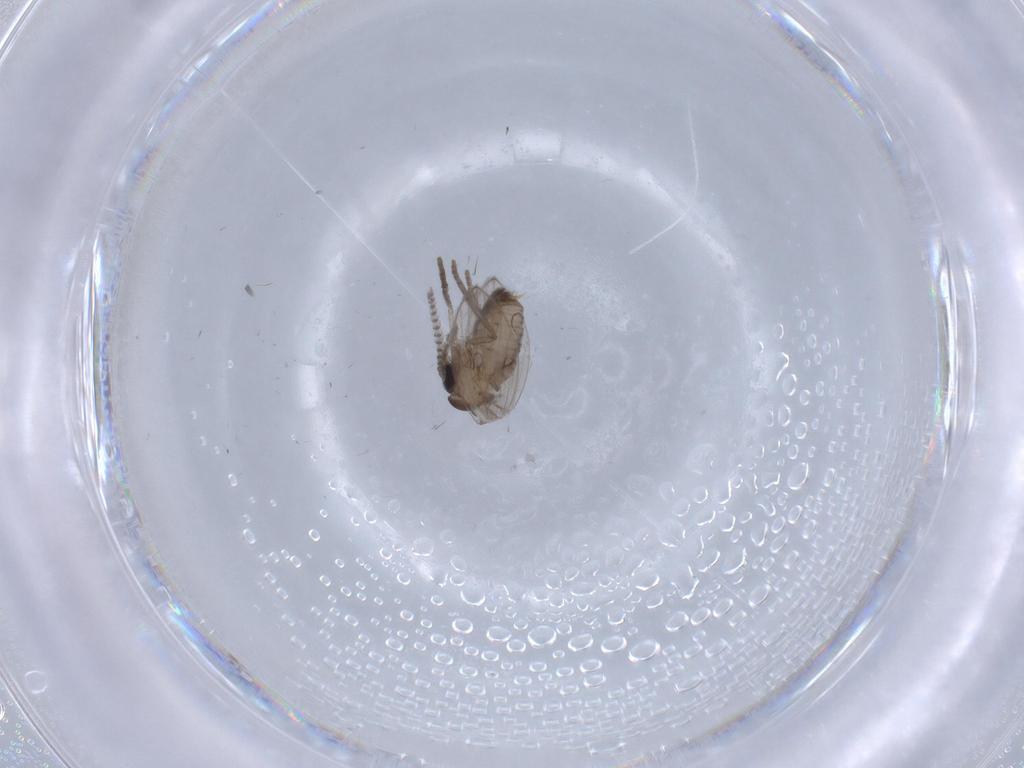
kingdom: Animalia
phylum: Arthropoda
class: Insecta
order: Diptera
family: Psychodidae
